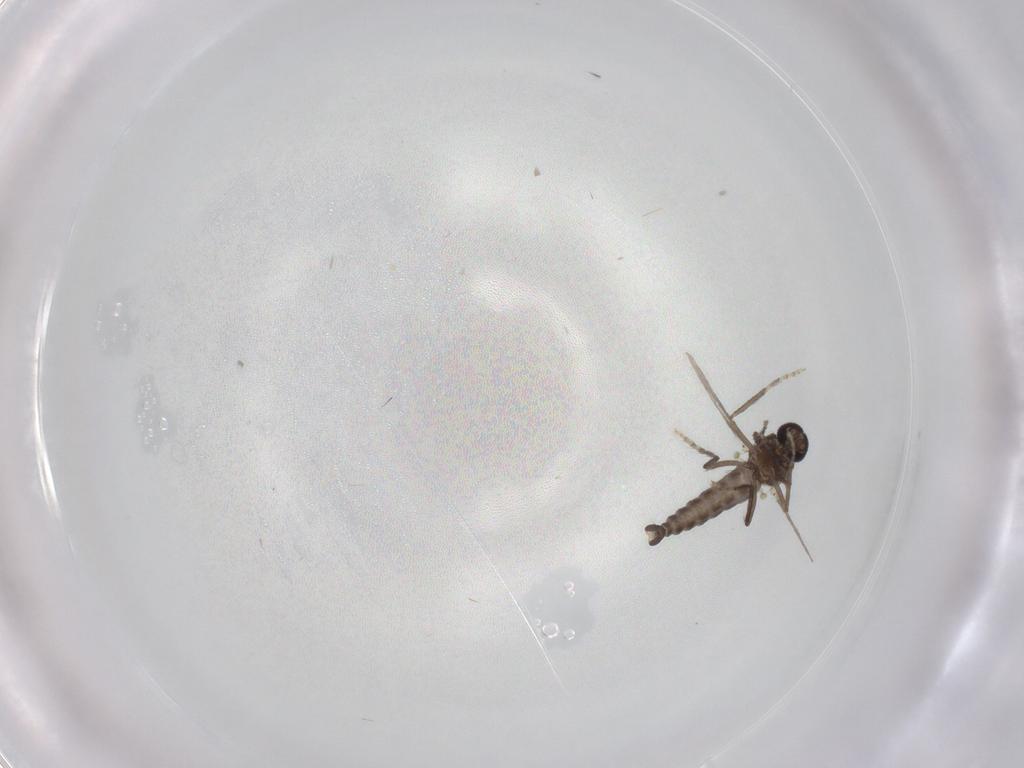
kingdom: Animalia
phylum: Arthropoda
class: Insecta
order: Diptera
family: Ceratopogonidae
